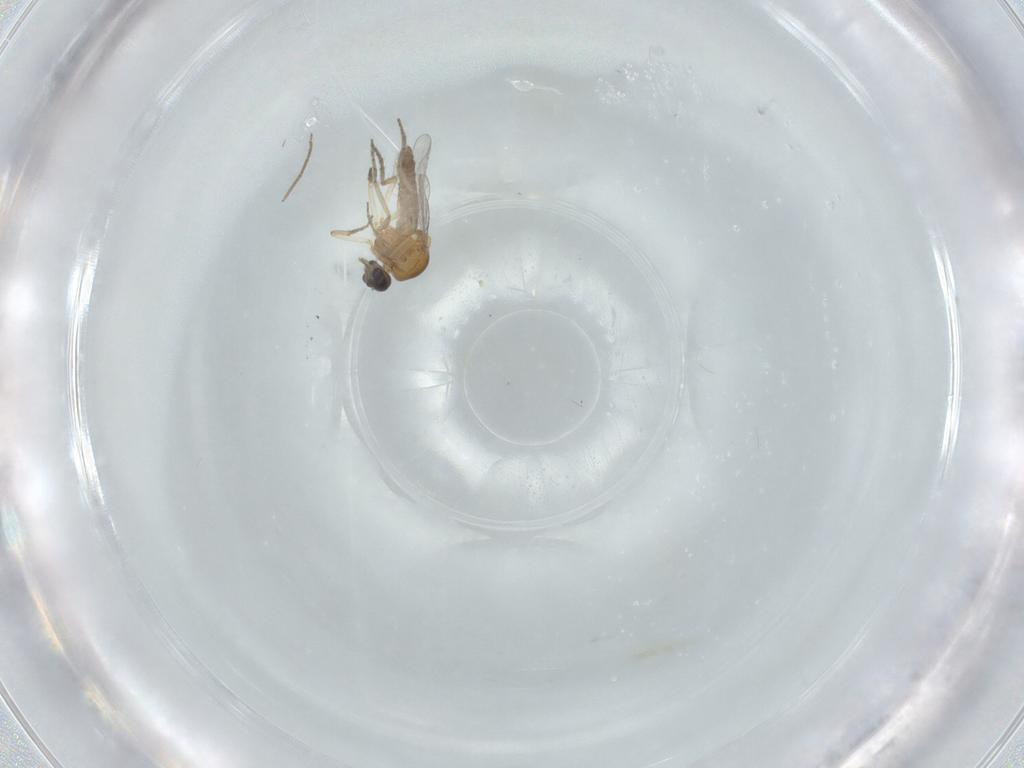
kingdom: Animalia
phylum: Arthropoda
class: Insecta
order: Diptera
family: Chironomidae
